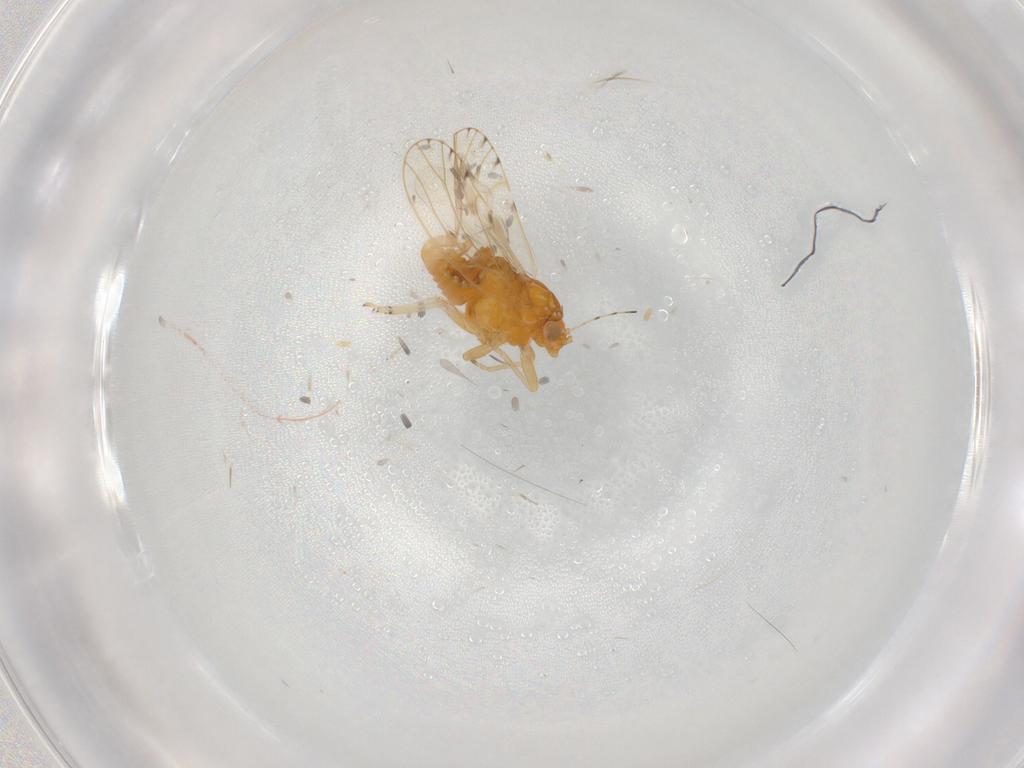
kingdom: Animalia
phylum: Arthropoda
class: Insecta
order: Hemiptera
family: Psylloidea_incertae_sedis
